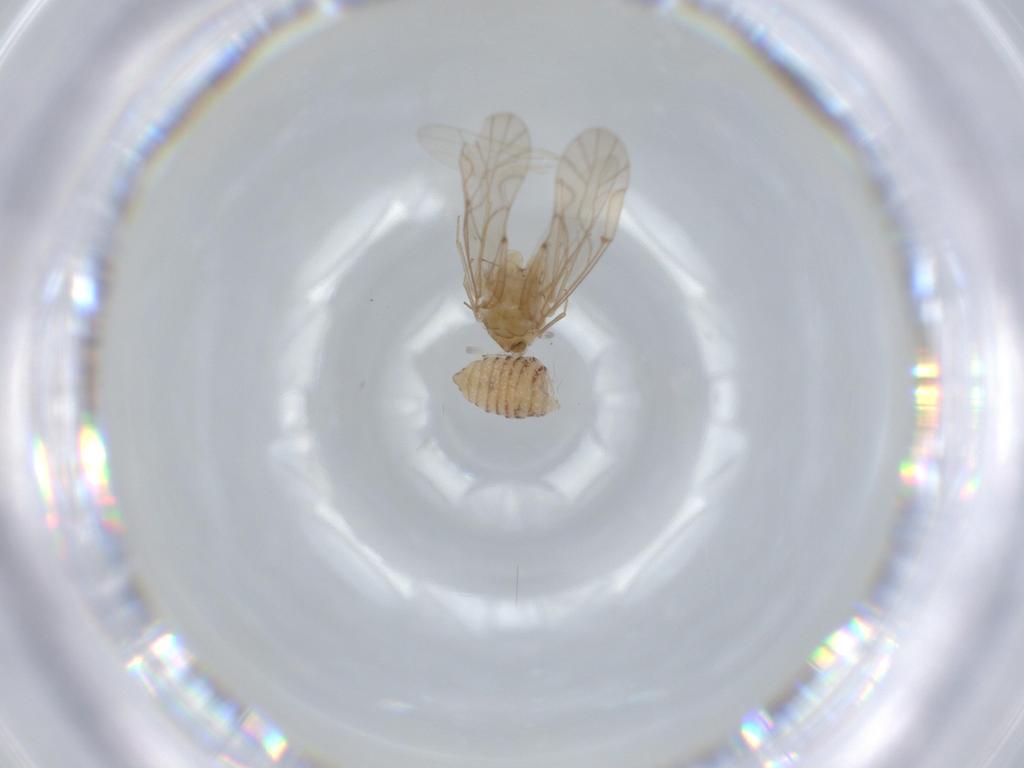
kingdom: Animalia
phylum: Arthropoda
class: Insecta
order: Psocodea
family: Lachesillidae
